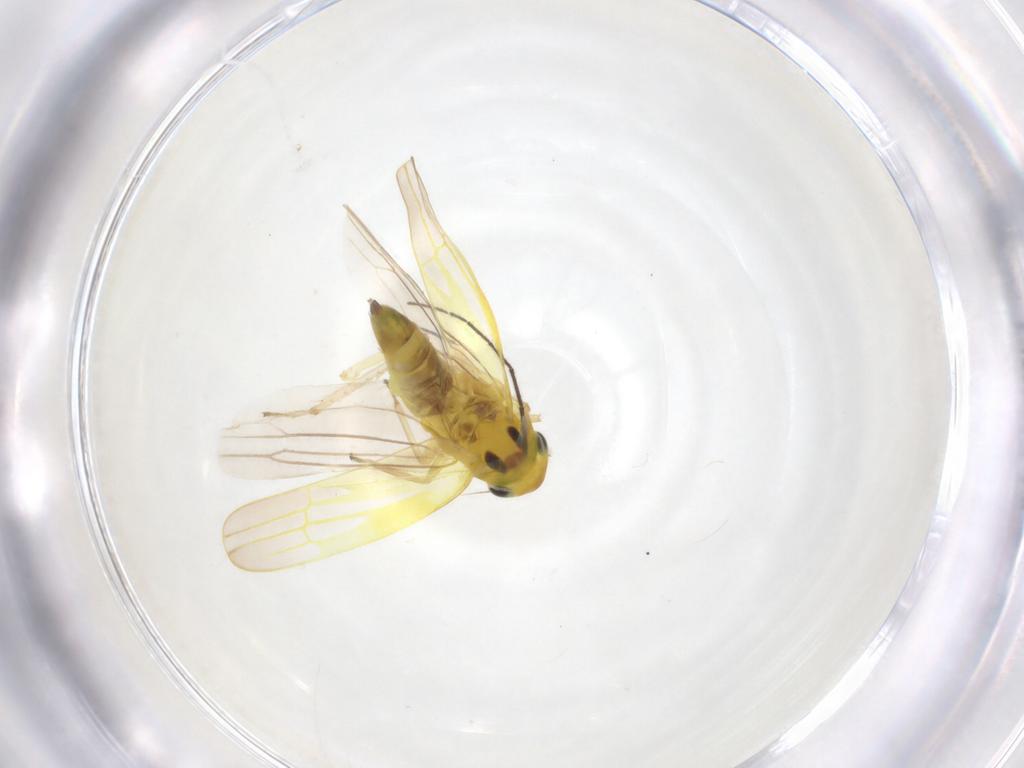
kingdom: Animalia
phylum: Arthropoda
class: Insecta
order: Hemiptera
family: Cicadellidae
